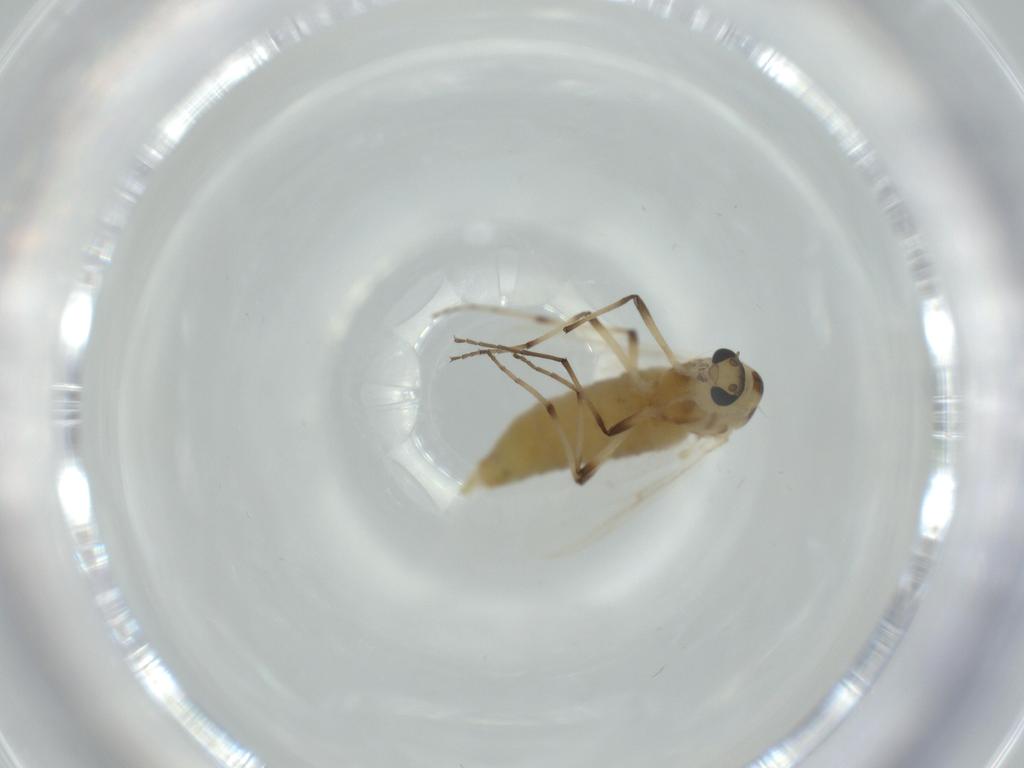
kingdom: Animalia
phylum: Arthropoda
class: Insecta
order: Diptera
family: Chironomidae
